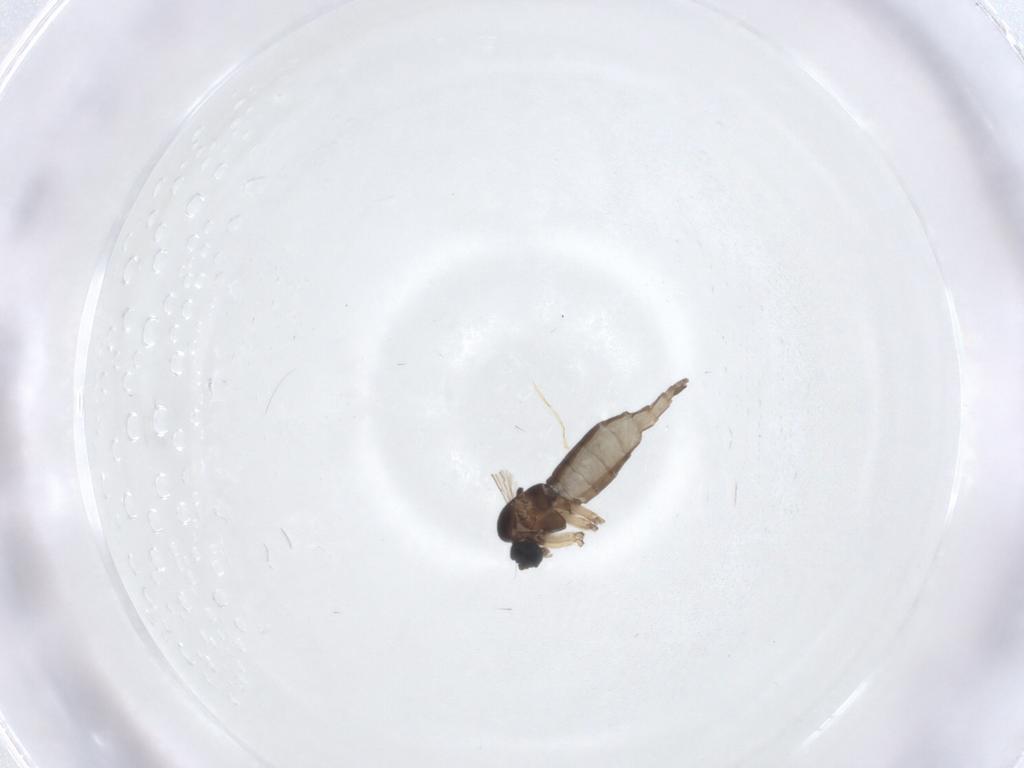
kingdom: Animalia
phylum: Arthropoda
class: Insecta
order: Diptera
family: Sciaridae
